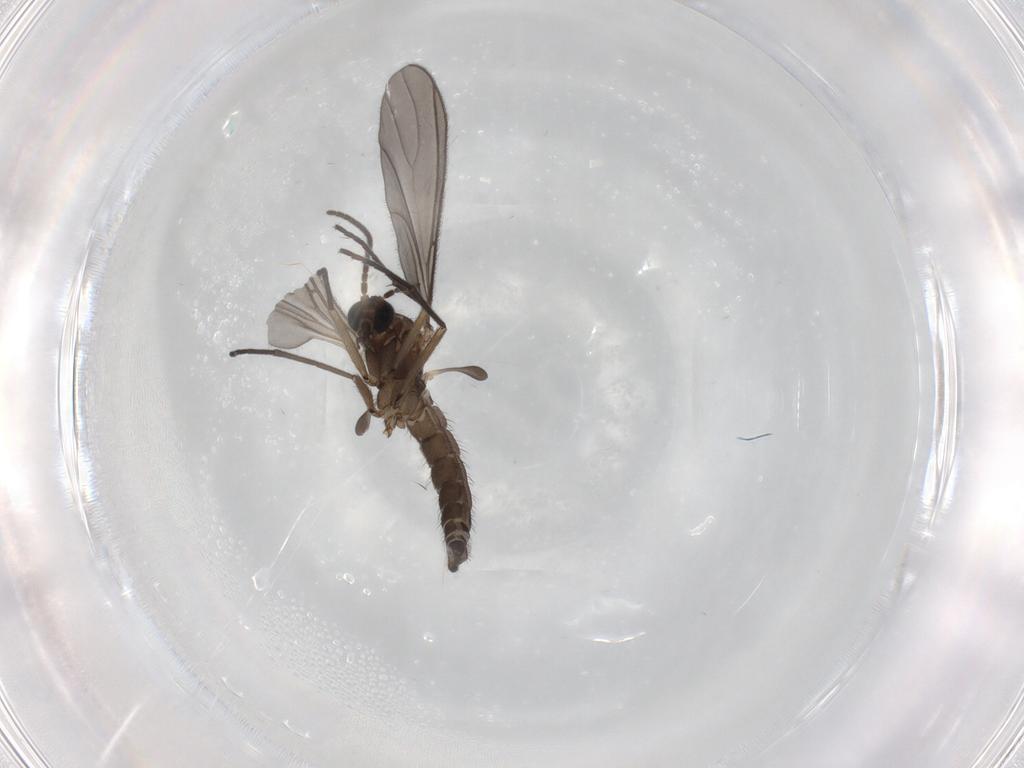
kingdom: Animalia
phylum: Arthropoda
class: Insecta
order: Diptera
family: Sciaridae
